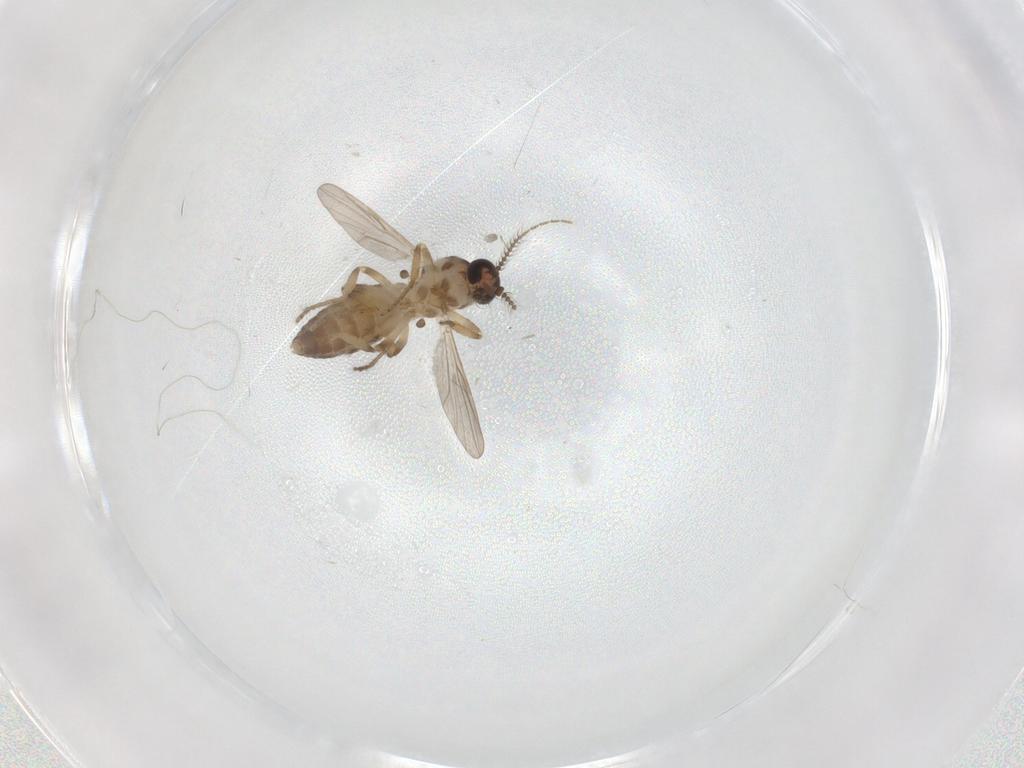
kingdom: Animalia
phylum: Arthropoda
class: Insecta
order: Diptera
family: Ceratopogonidae
